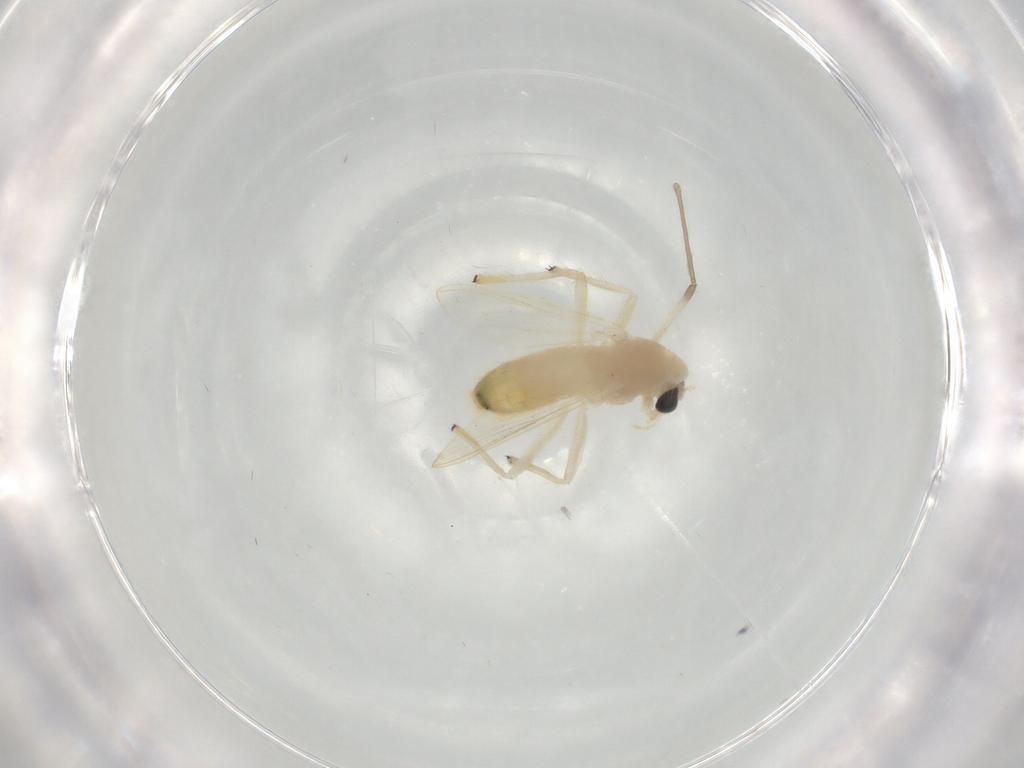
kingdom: Animalia
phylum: Arthropoda
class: Insecta
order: Diptera
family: Chironomidae
